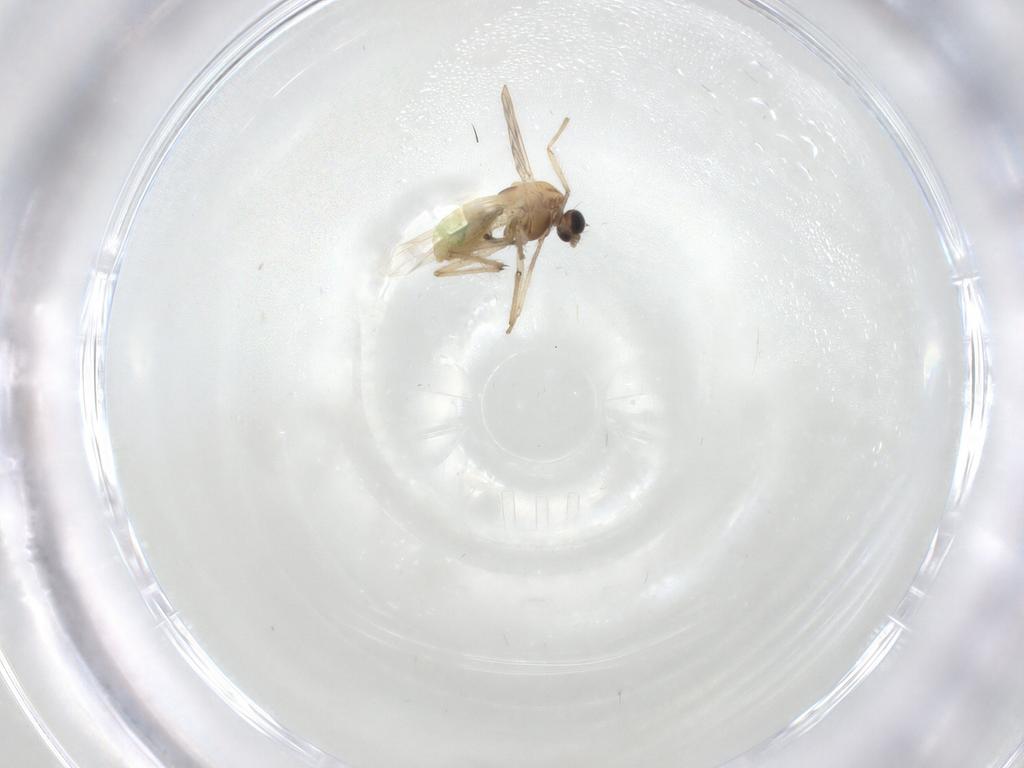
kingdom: Animalia
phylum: Arthropoda
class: Insecta
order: Diptera
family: Chironomidae
